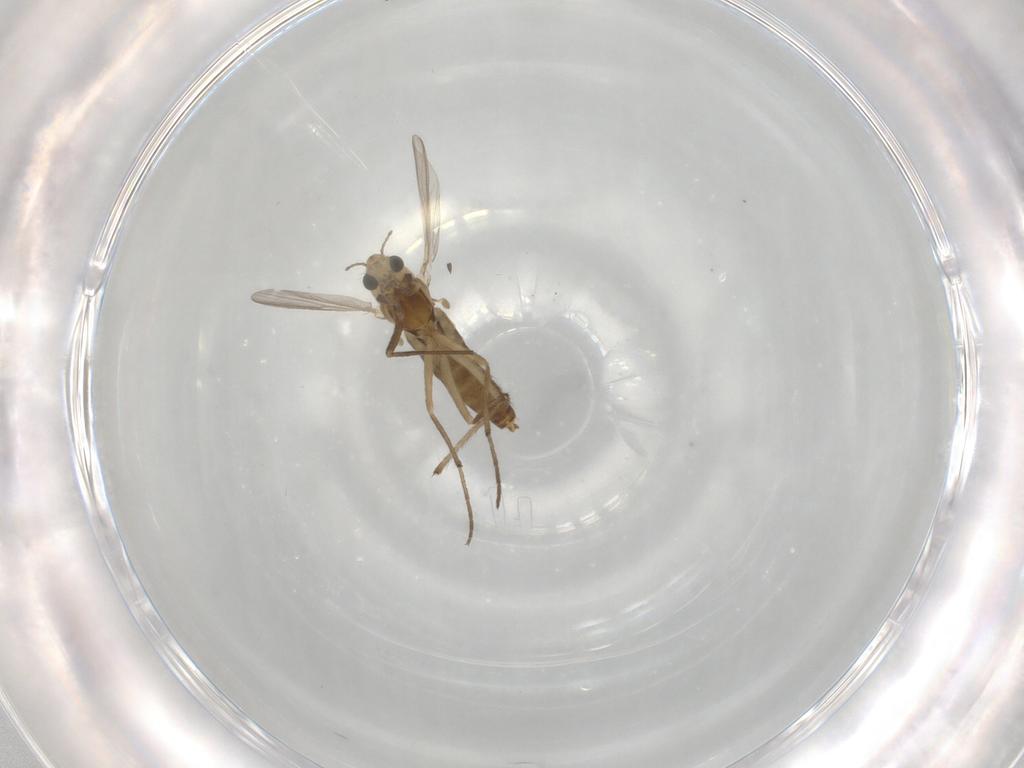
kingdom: Animalia
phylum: Arthropoda
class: Insecta
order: Diptera
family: Chironomidae
